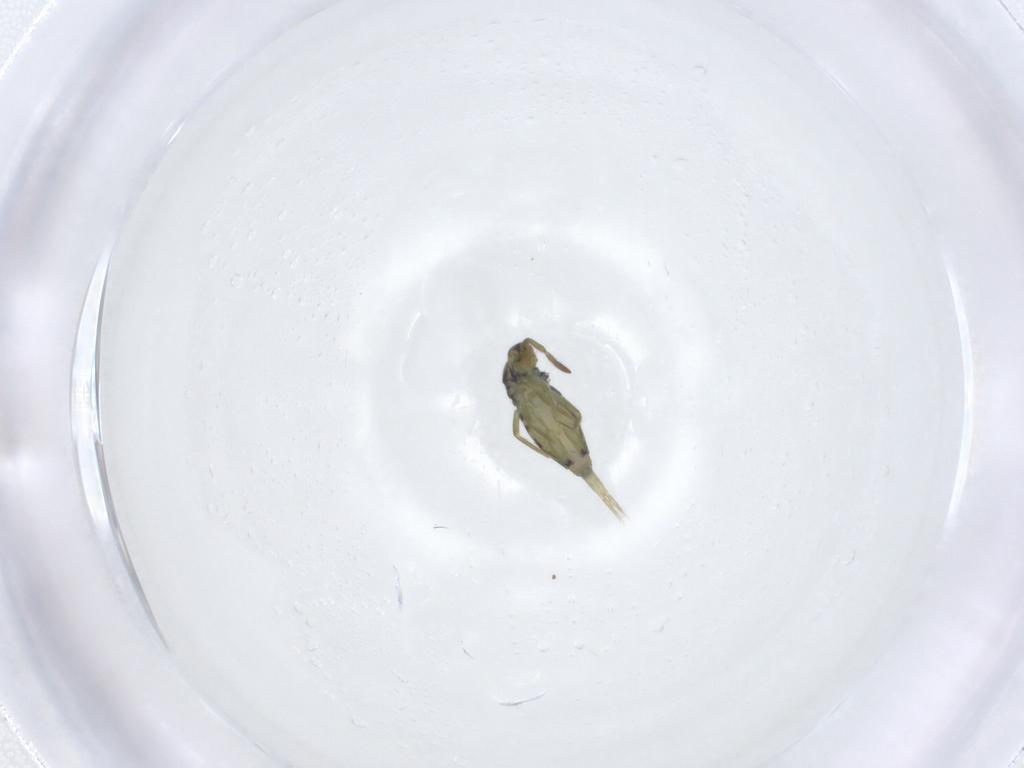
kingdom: Animalia
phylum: Arthropoda
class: Collembola
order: Entomobryomorpha
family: Entomobryidae
